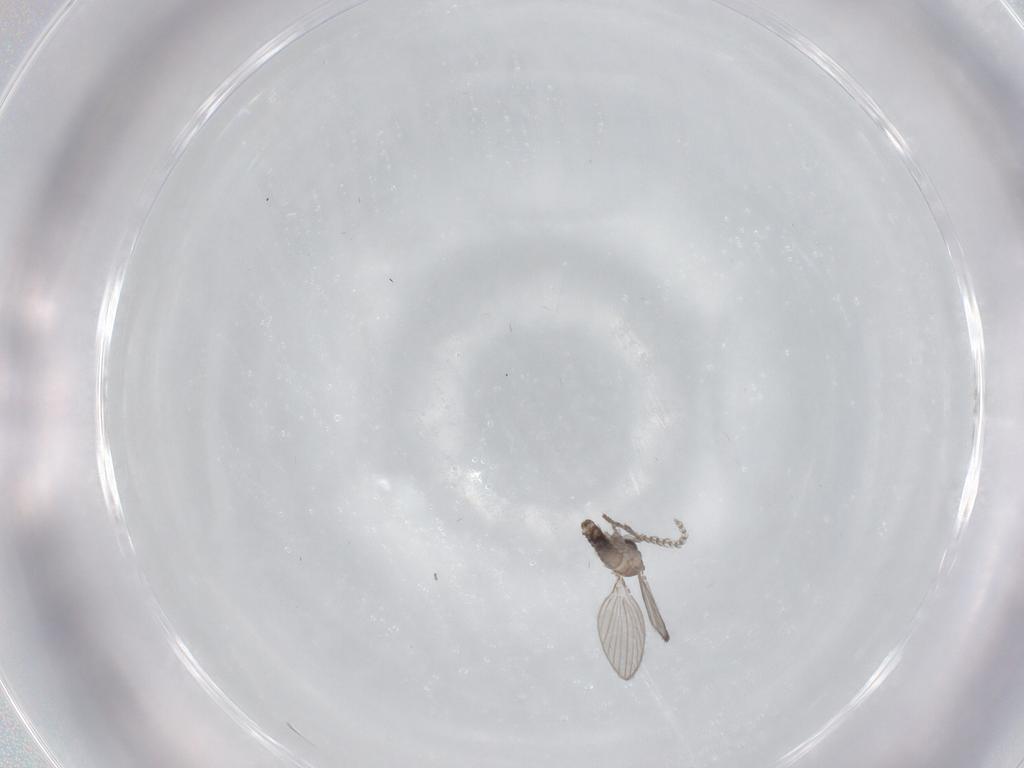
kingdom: Animalia
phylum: Arthropoda
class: Insecta
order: Diptera
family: Psychodidae
